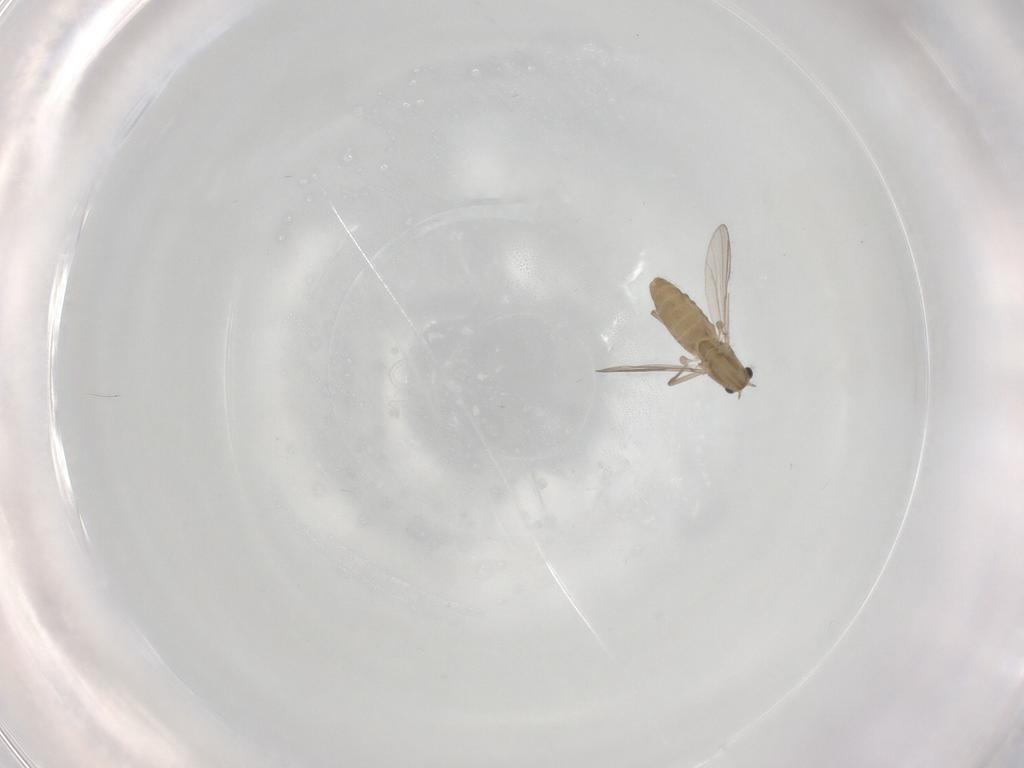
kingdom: Animalia
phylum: Arthropoda
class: Insecta
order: Diptera
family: Chironomidae
